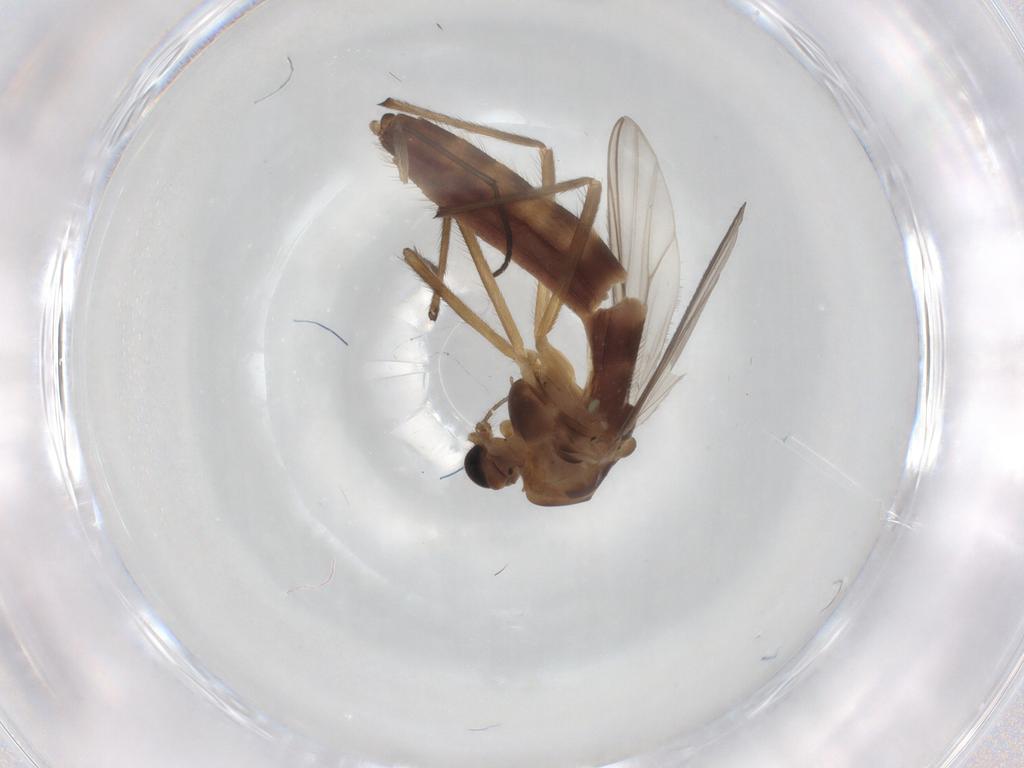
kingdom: Animalia
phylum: Arthropoda
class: Insecta
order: Diptera
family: Chironomidae
